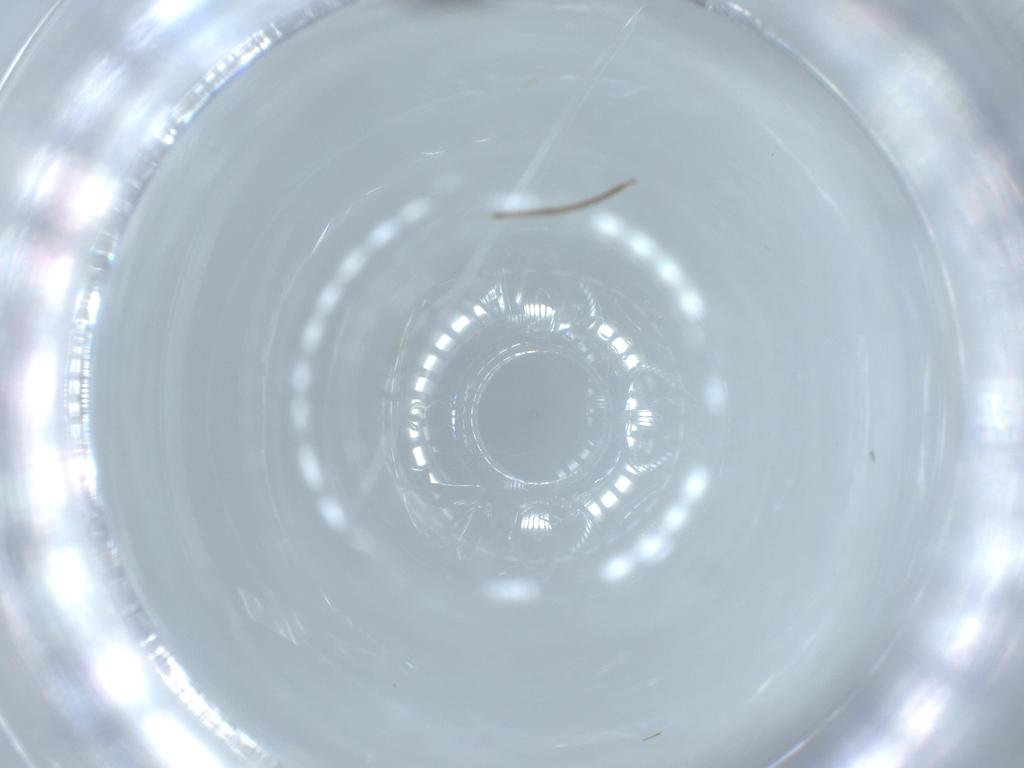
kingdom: Animalia
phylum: Arthropoda
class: Insecta
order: Diptera
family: Sciaridae
